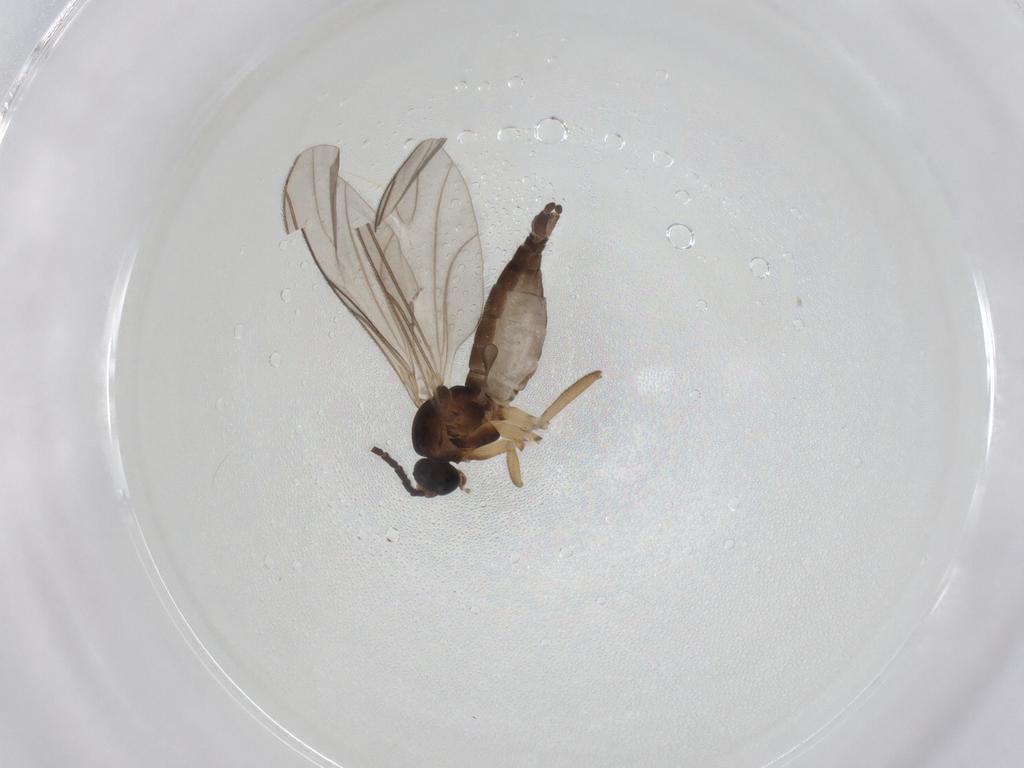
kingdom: Animalia
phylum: Arthropoda
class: Insecta
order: Diptera
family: Sciaridae
